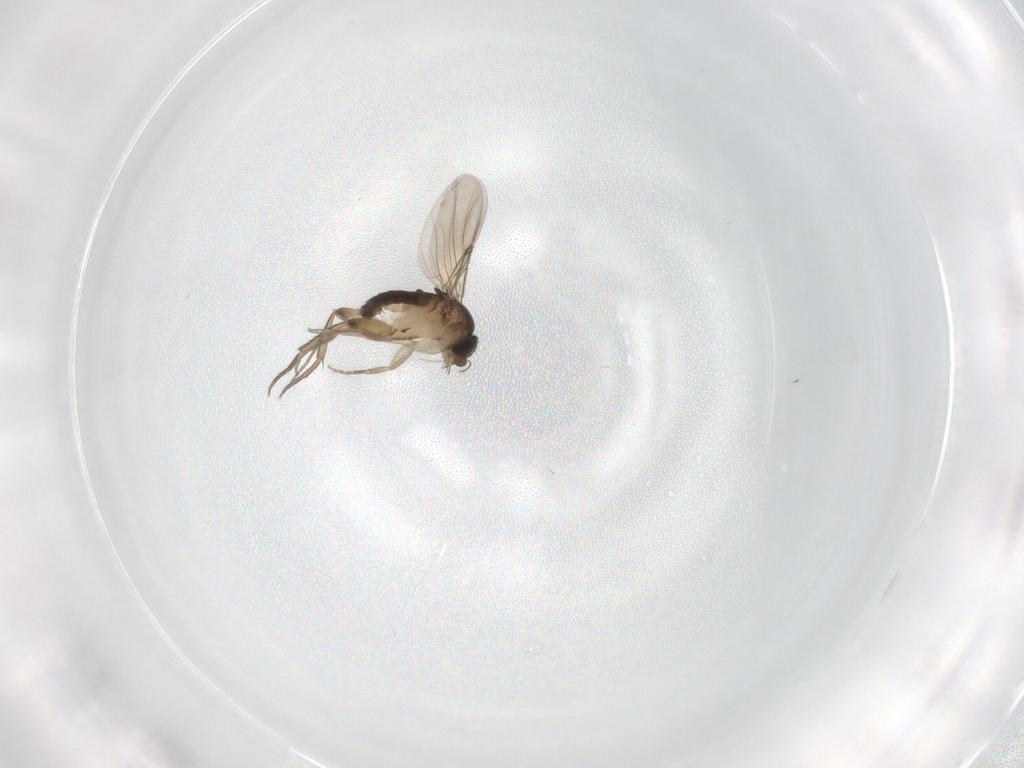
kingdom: Animalia
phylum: Arthropoda
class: Insecta
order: Diptera
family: Phoridae
